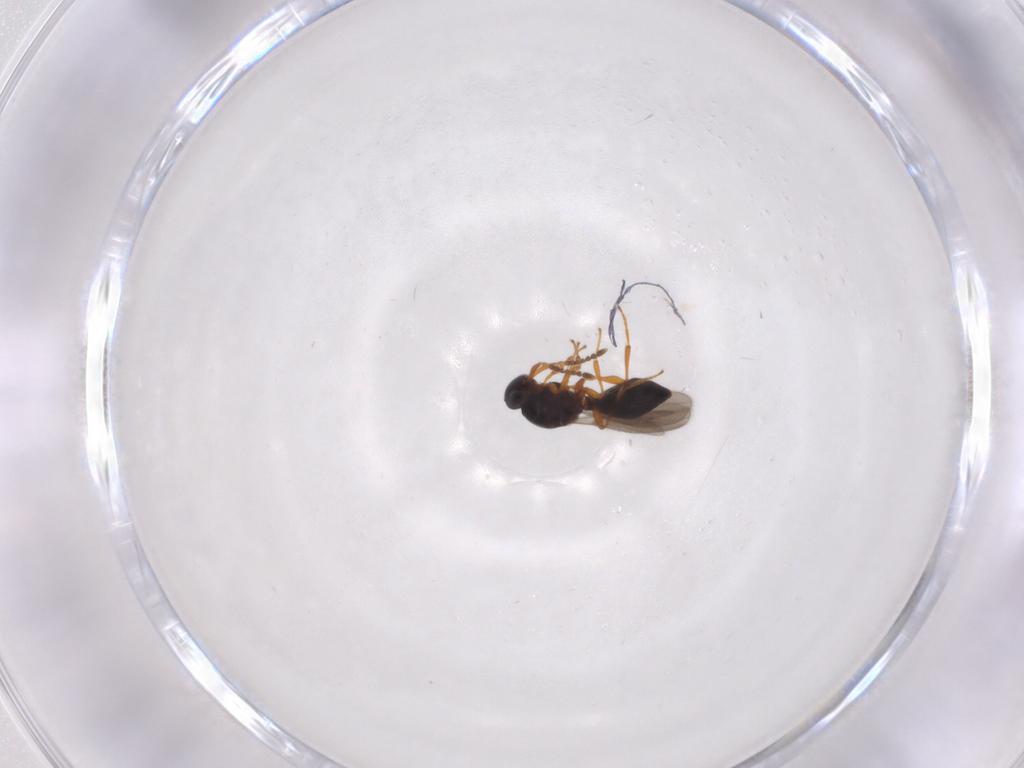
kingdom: Animalia
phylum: Arthropoda
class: Insecta
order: Hymenoptera
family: Platygastridae
